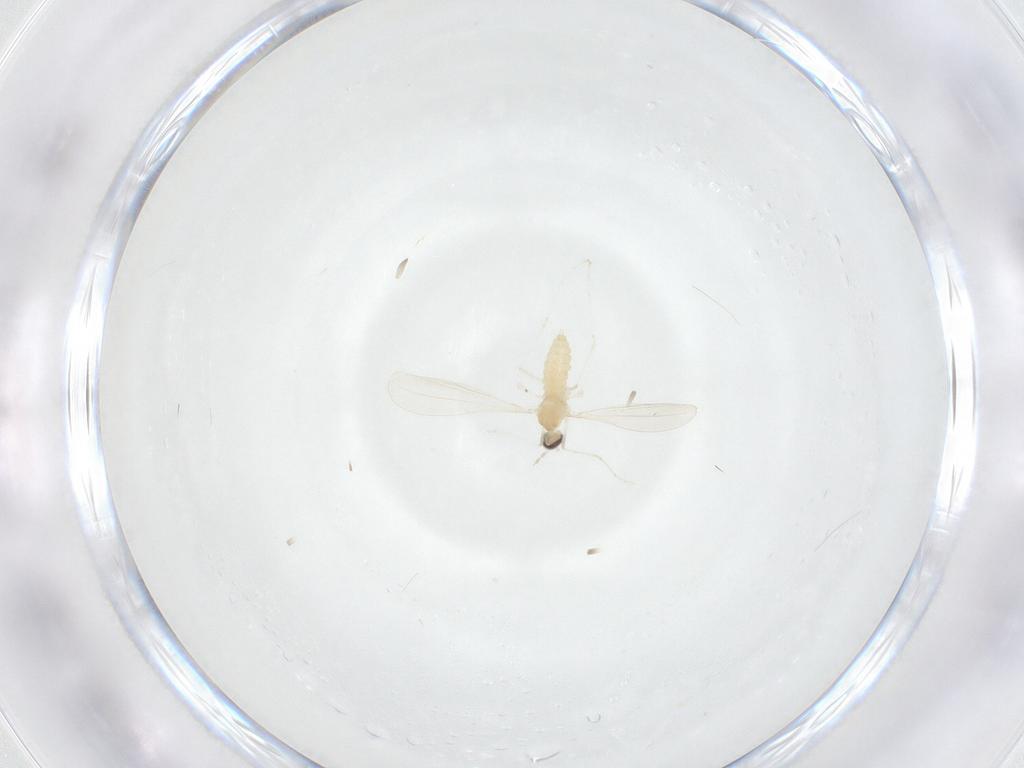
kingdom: Animalia
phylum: Arthropoda
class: Insecta
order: Diptera
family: Cecidomyiidae
